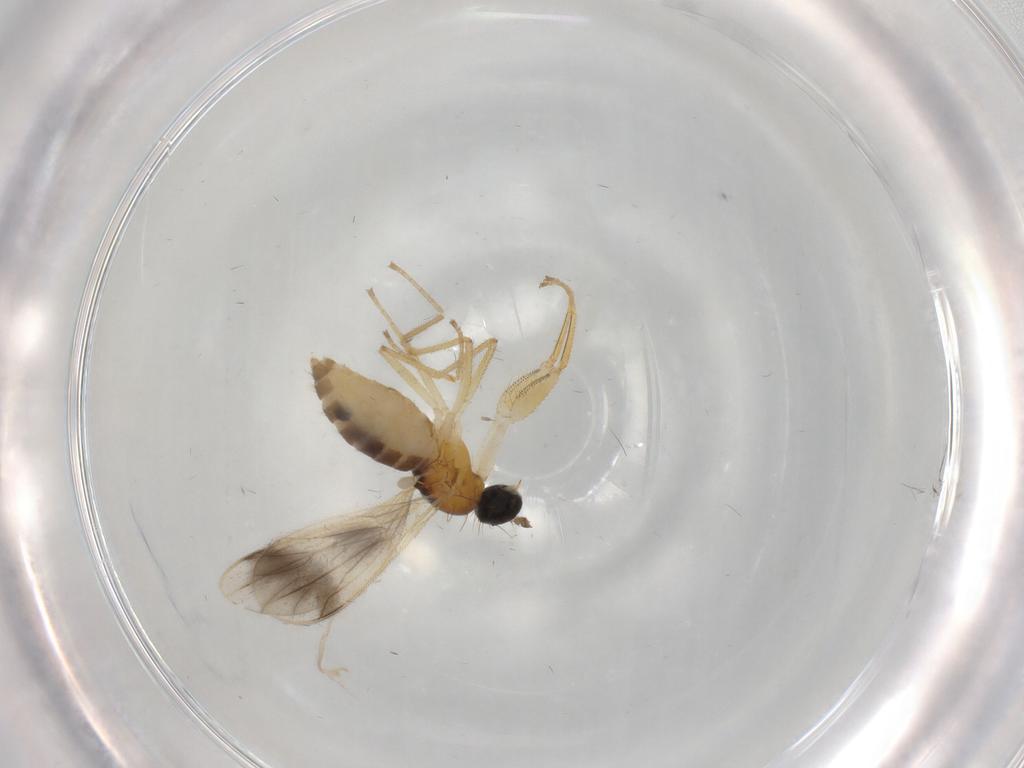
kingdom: Animalia
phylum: Arthropoda
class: Insecta
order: Diptera
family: Empididae
